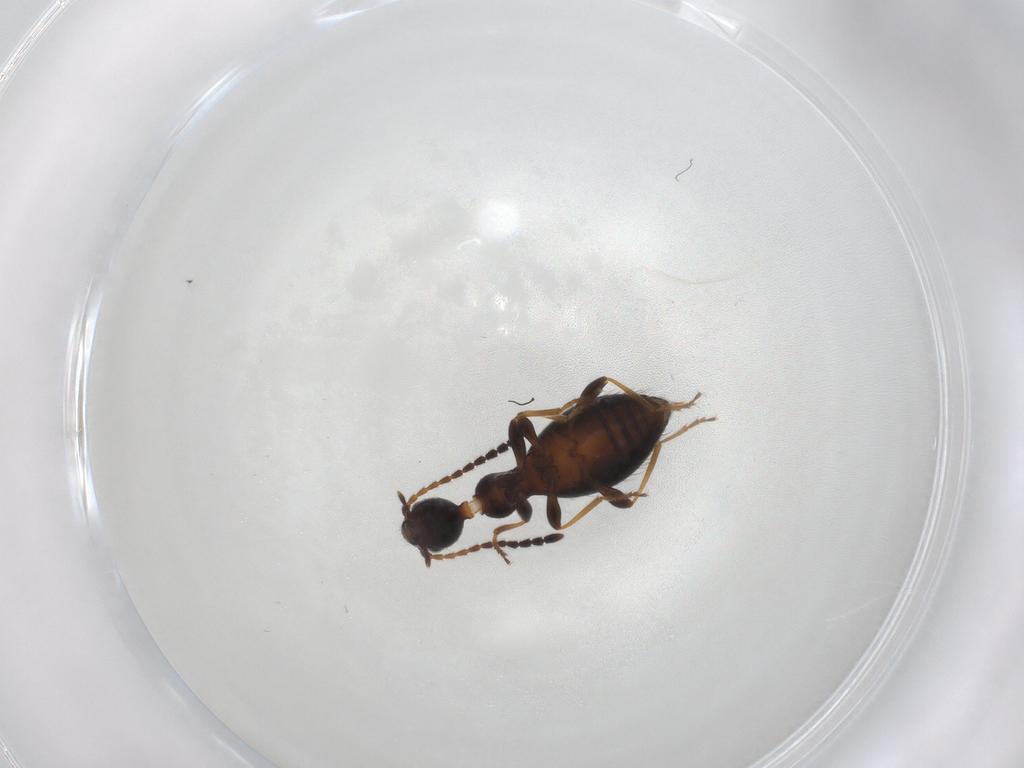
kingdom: Animalia
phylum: Arthropoda
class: Insecta
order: Coleoptera
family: Anthicidae
